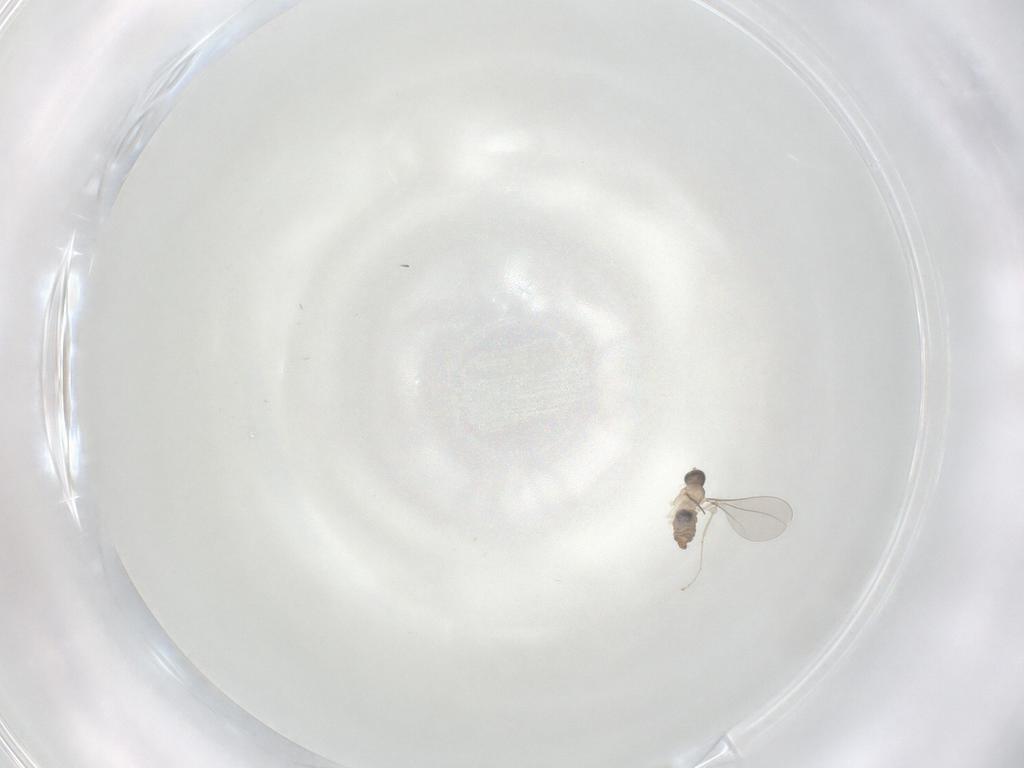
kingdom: Animalia
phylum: Arthropoda
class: Insecta
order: Diptera
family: Cecidomyiidae
